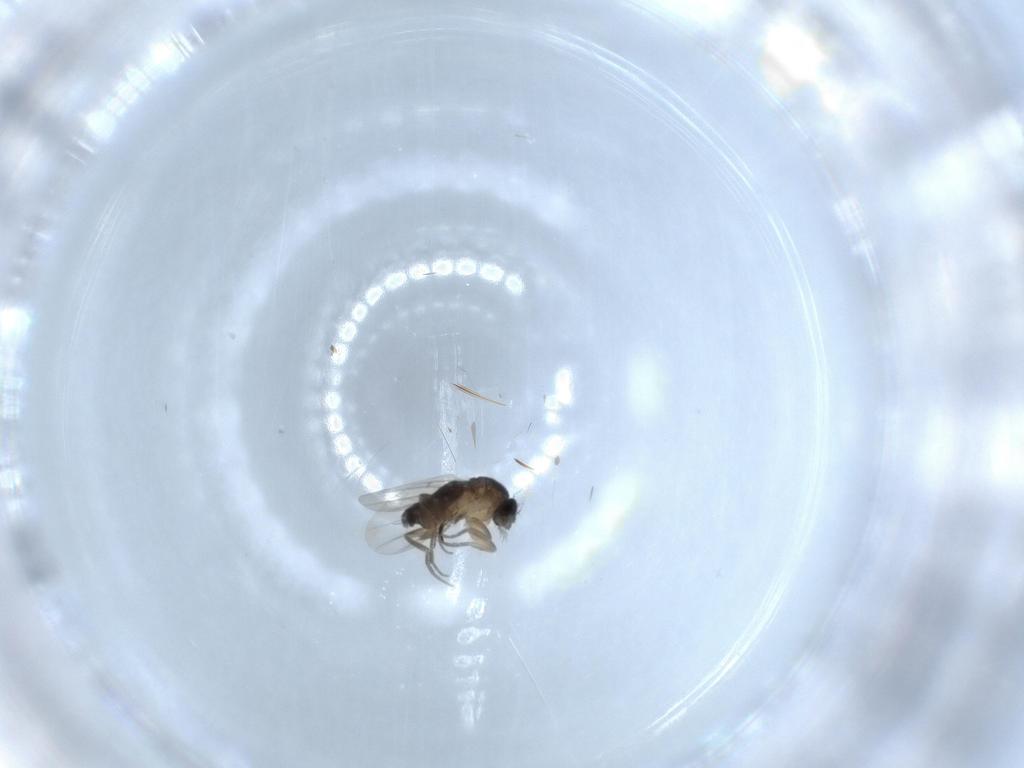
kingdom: Animalia
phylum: Arthropoda
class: Insecta
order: Diptera
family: Phoridae
